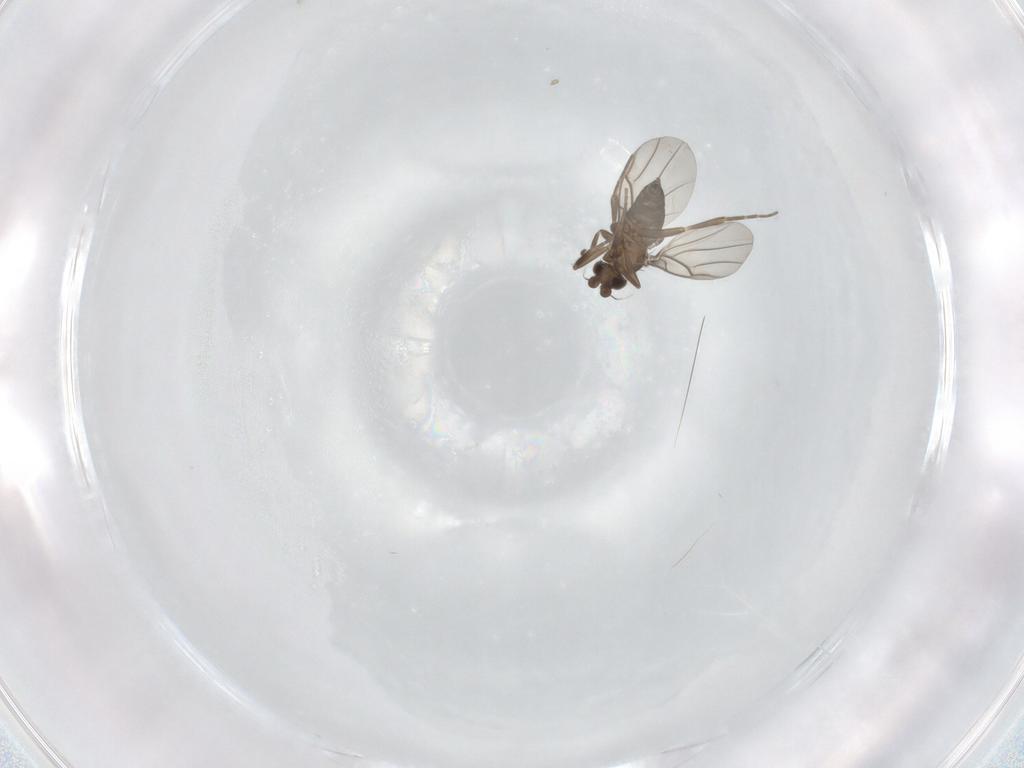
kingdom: Animalia
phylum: Arthropoda
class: Insecta
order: Diptera
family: Phoridae
